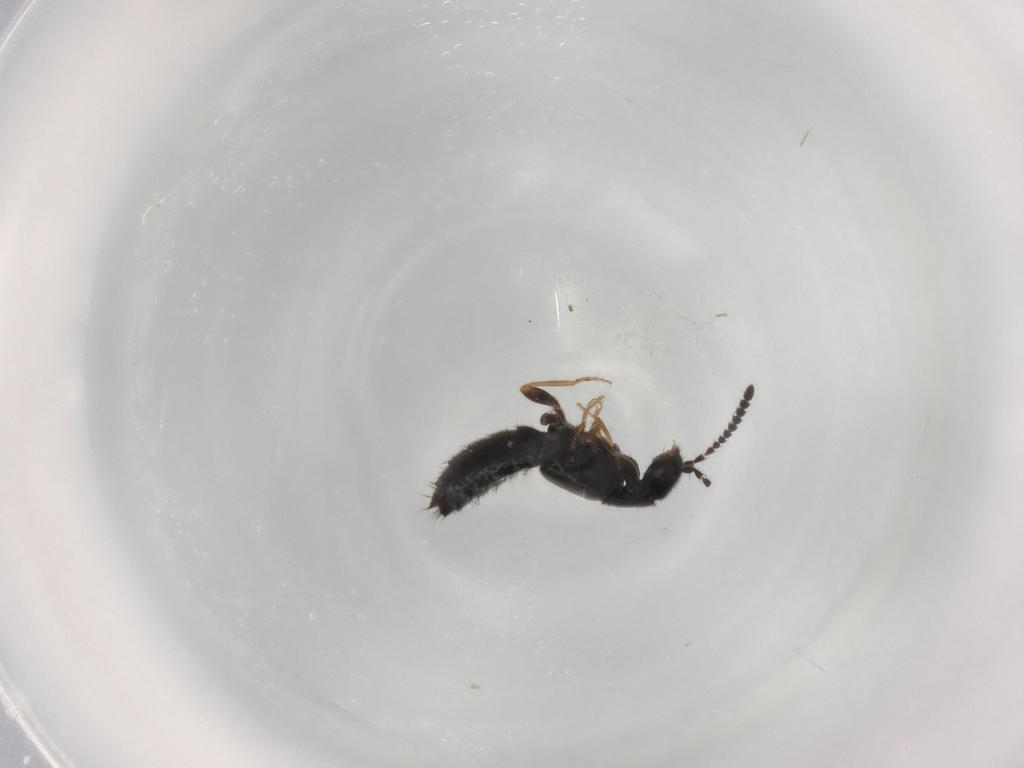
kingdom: Animalia
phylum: Arthropoda
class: Insecta
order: Coleoptera
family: Staphylinidae
